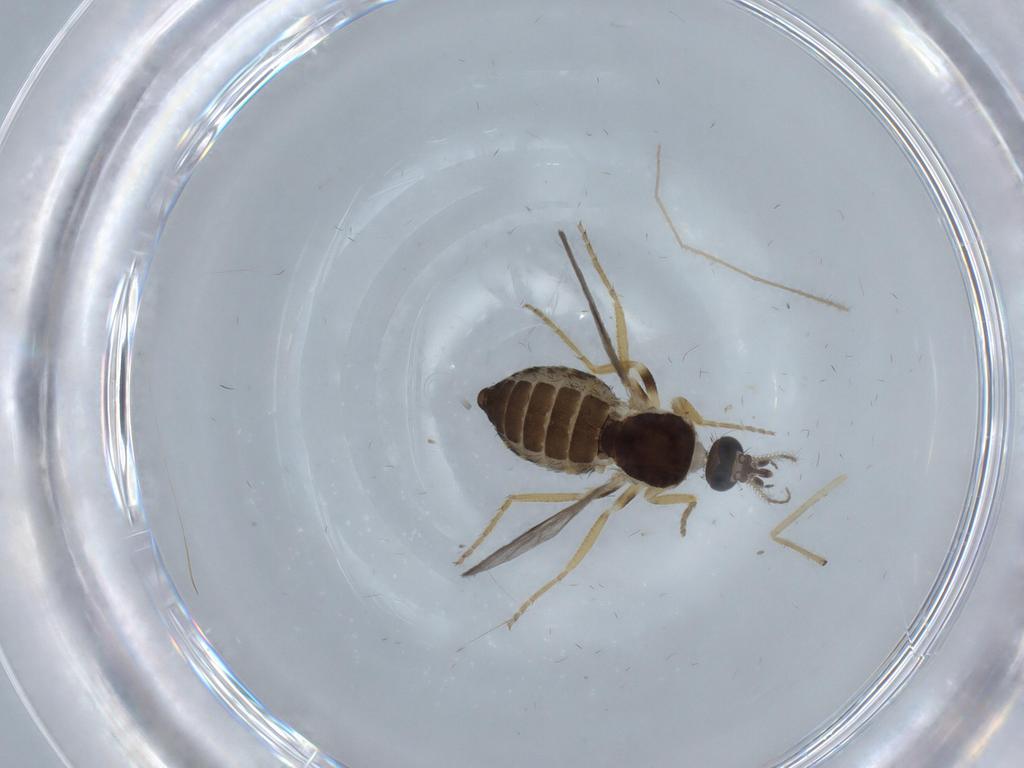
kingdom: Animalia
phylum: Arthropoda
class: Insecta
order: Diptera
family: Ceratopogonidae
